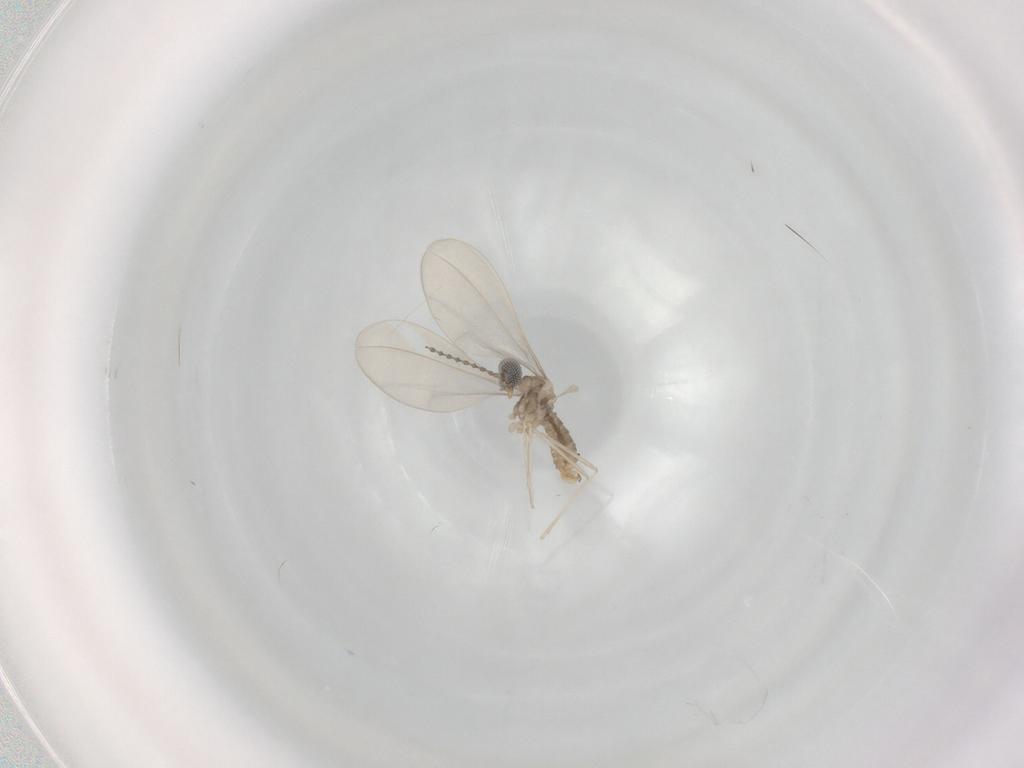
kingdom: Animalia
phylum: Arthropoda
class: Insecta
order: Diptera
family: Cecidomyiidae
